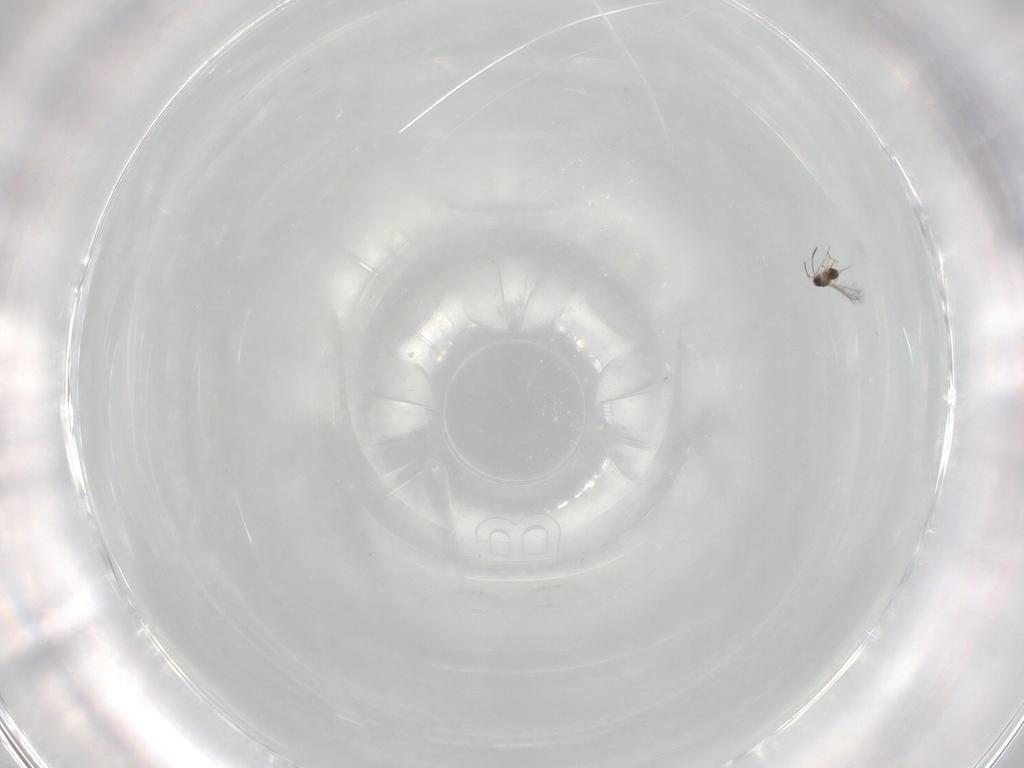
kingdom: Animalia
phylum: Arthropoda
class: Insecta
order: Hymenoptera
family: Mymaridae
